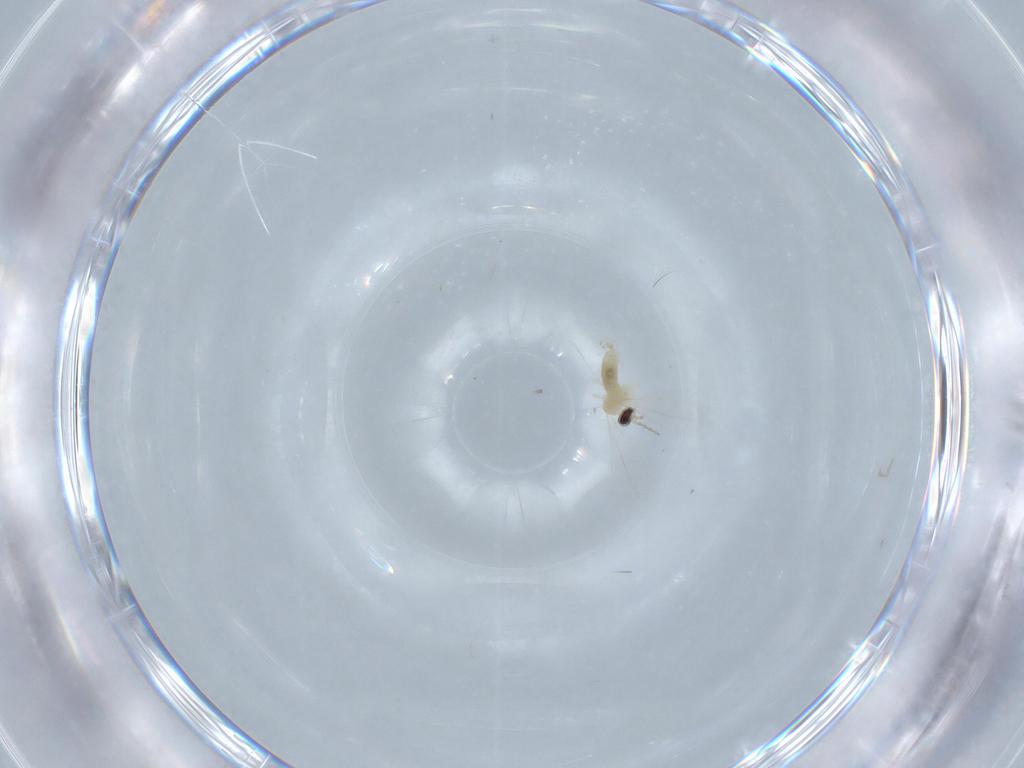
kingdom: Animalia
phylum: Arthropoda
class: Insecta
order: Diptera
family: Cecidomyiidae
